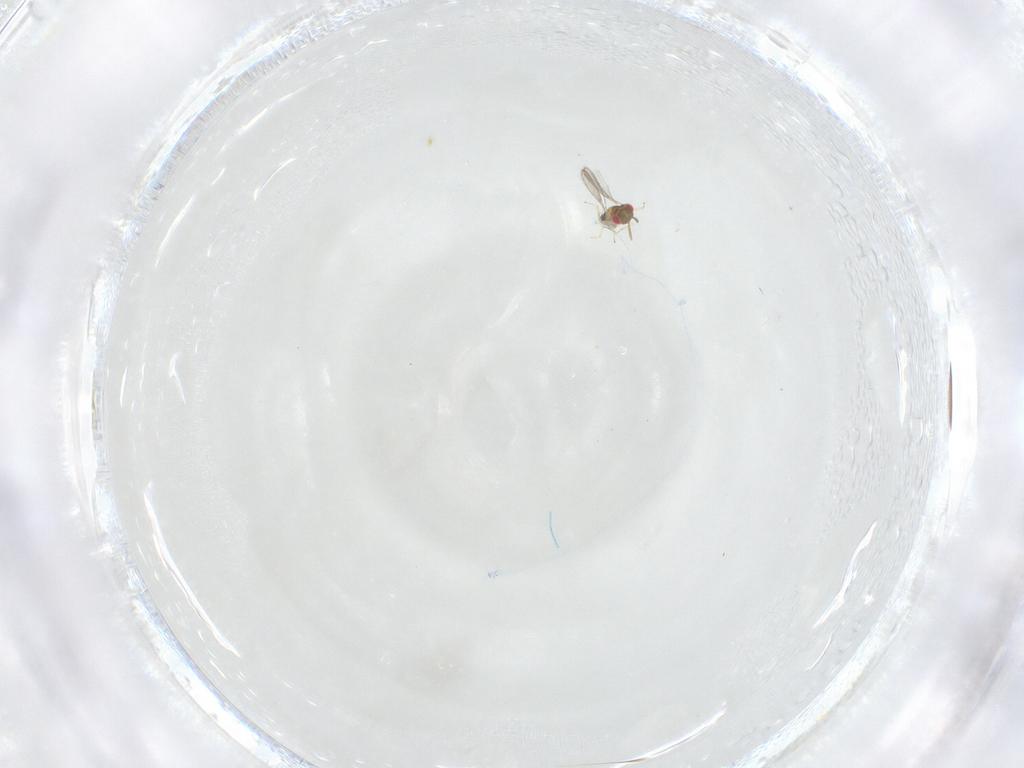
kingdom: Animalia
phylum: Arthropoda
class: Insecta
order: Hymenoptera
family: Aphelinidae
